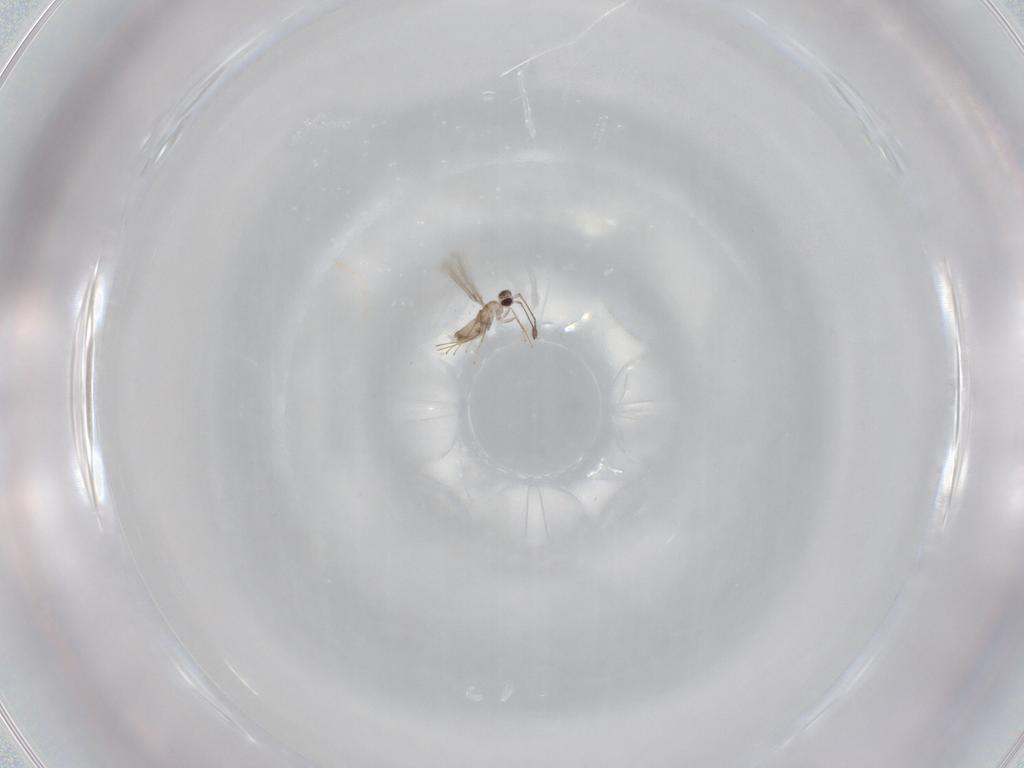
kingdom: Animalia
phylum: Arthropoda
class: Insecta
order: Hymenoptera
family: Mymaridae
